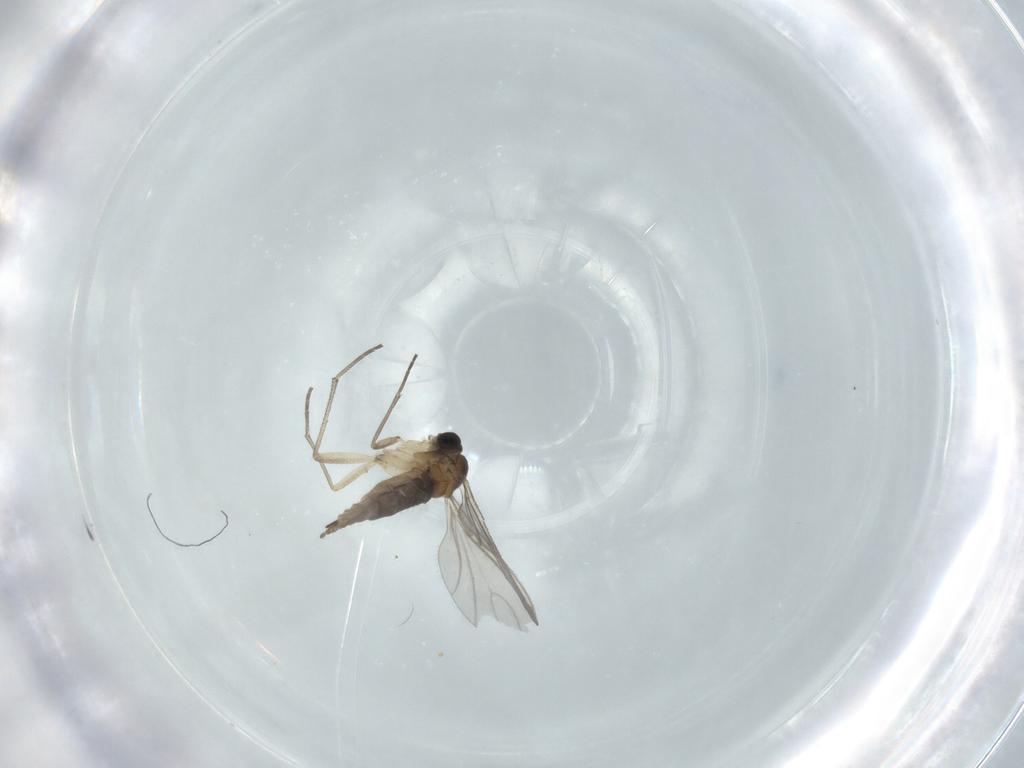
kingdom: Animalia
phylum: Arthropoda
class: Insecta
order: Diptera
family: Sciaridae
